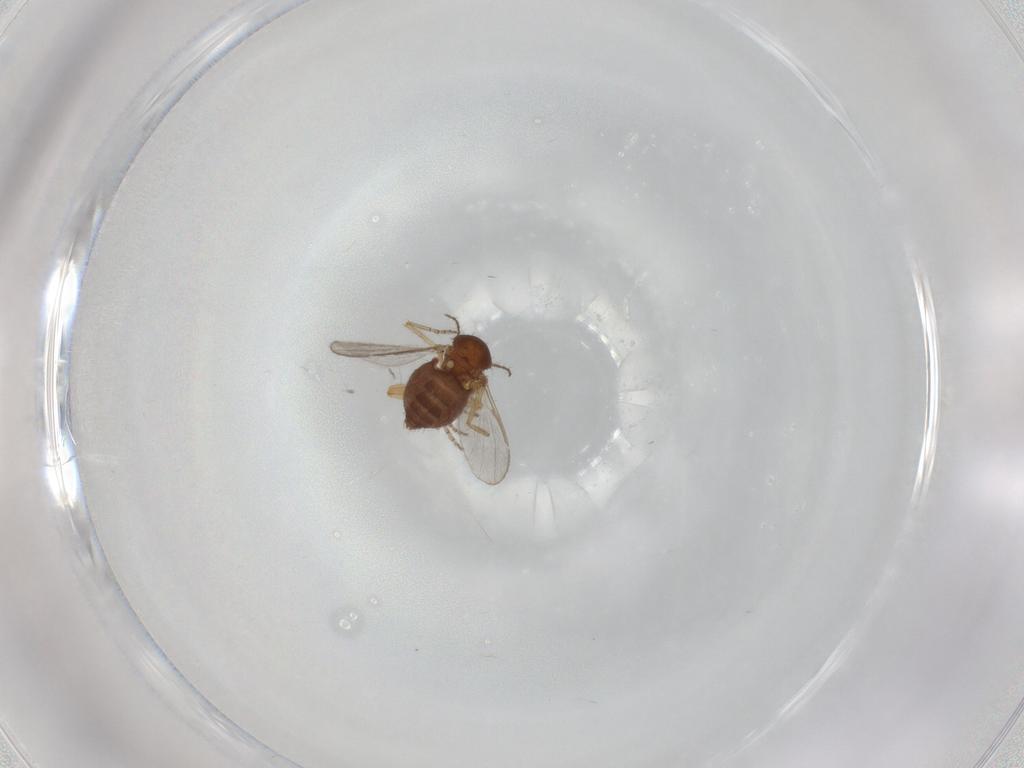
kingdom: Animalia
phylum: Arthropoda
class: Insecta
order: Diptera
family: Ceratopogonidae
